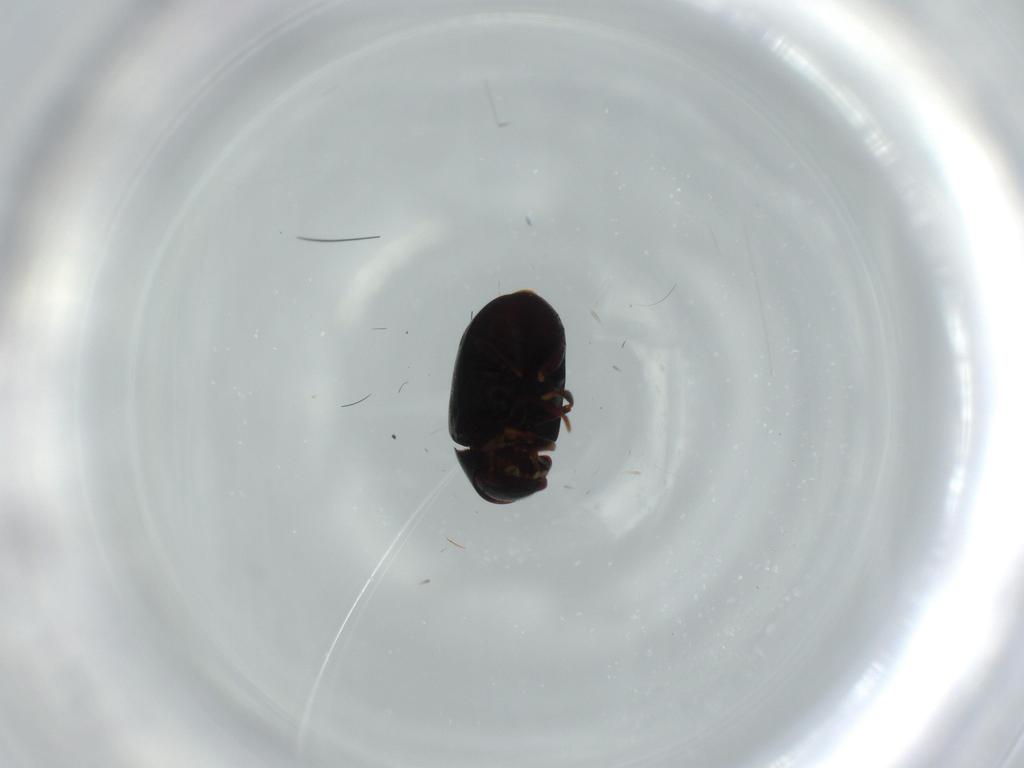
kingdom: Animalia
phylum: Arthropoda
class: Insecta
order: Coleoptera
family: Ptinidae
